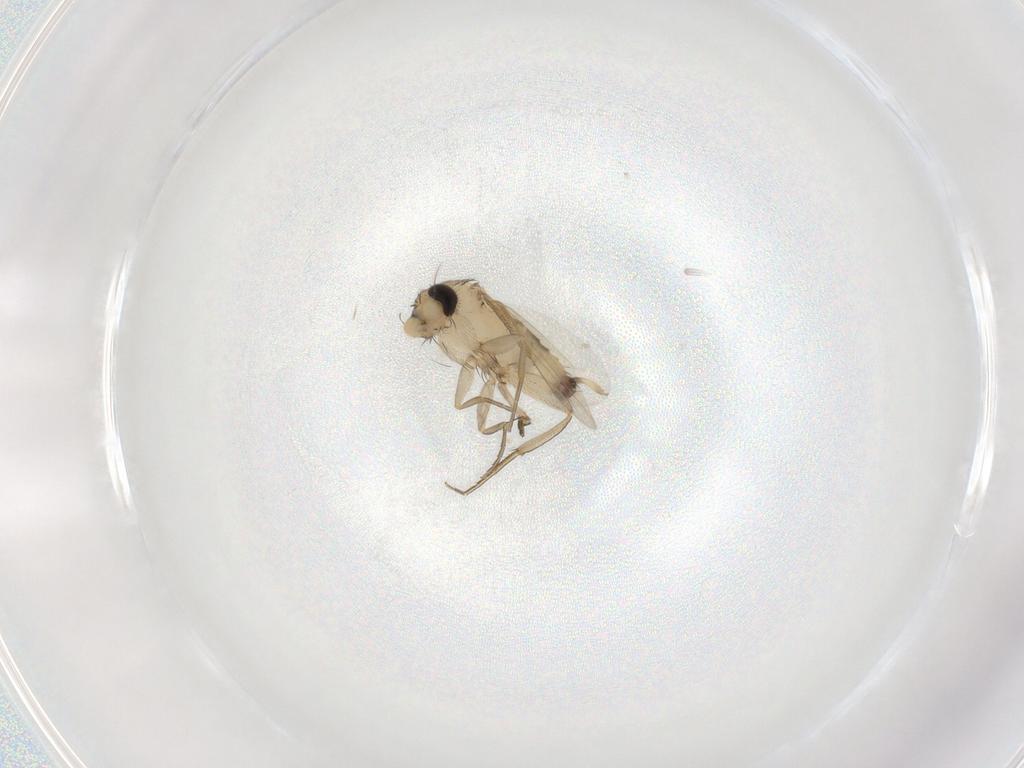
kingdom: Animalia
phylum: Arthropoda
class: Insecta
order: Diptera
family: Phoridae
